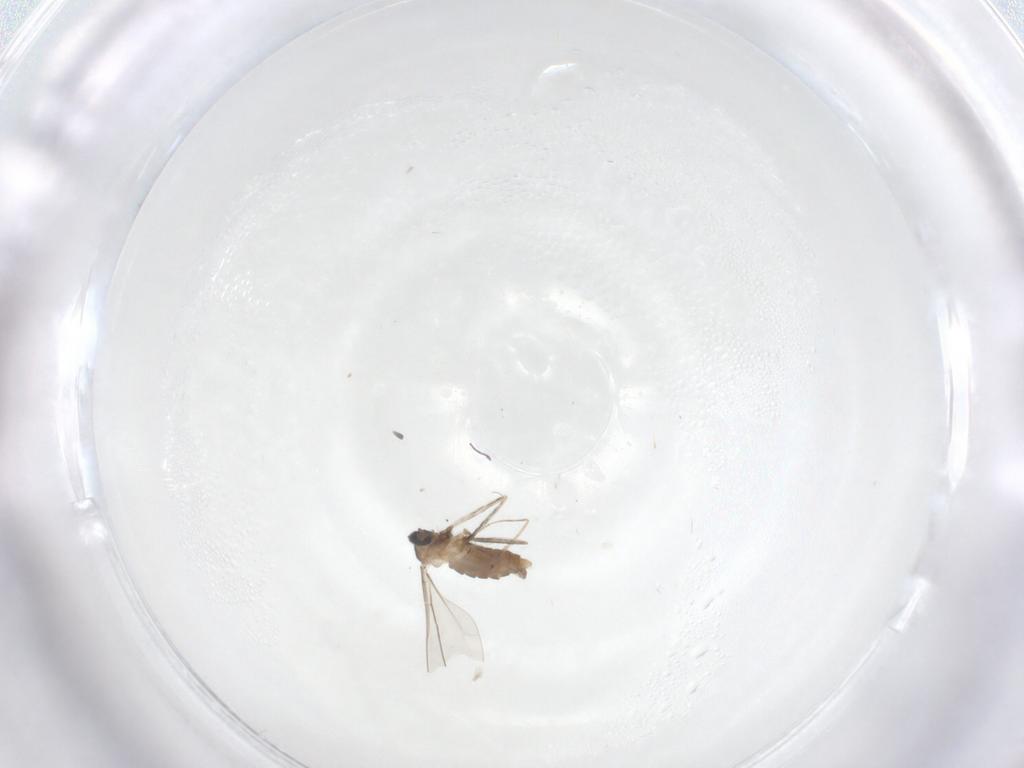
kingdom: Animalia
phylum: Arthropoda
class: Insecta
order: Diptera
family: Cecidomyiidae
